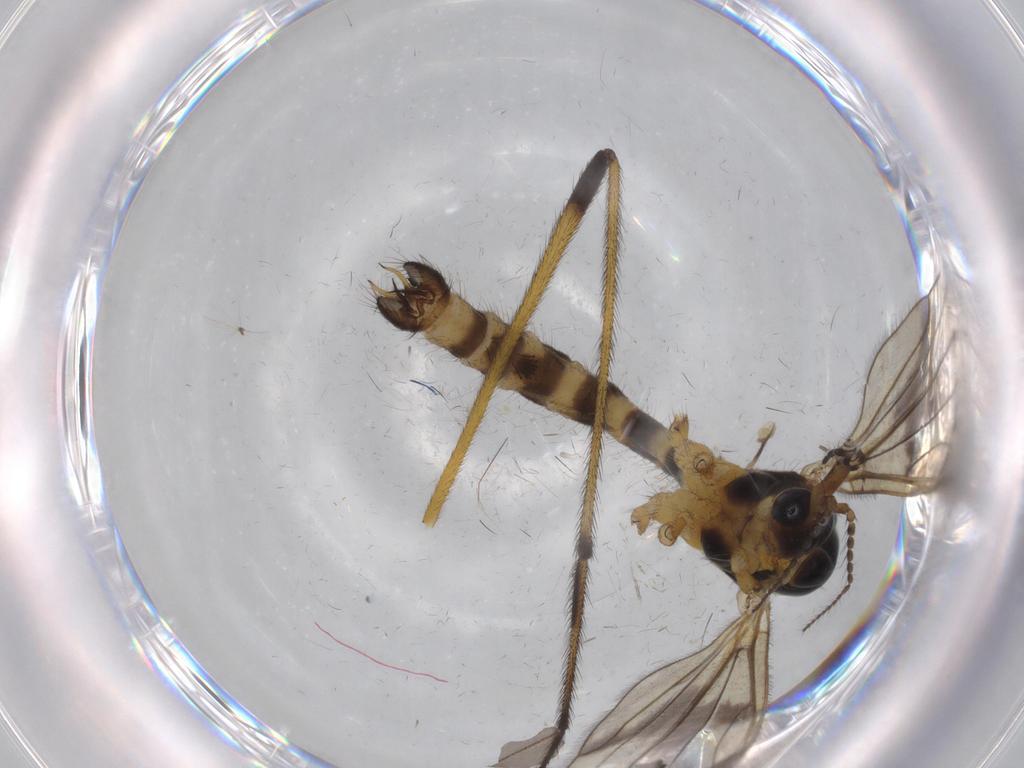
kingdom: Animalia
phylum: Arthropoda
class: Insecta
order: Diptera
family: Limoniidae
